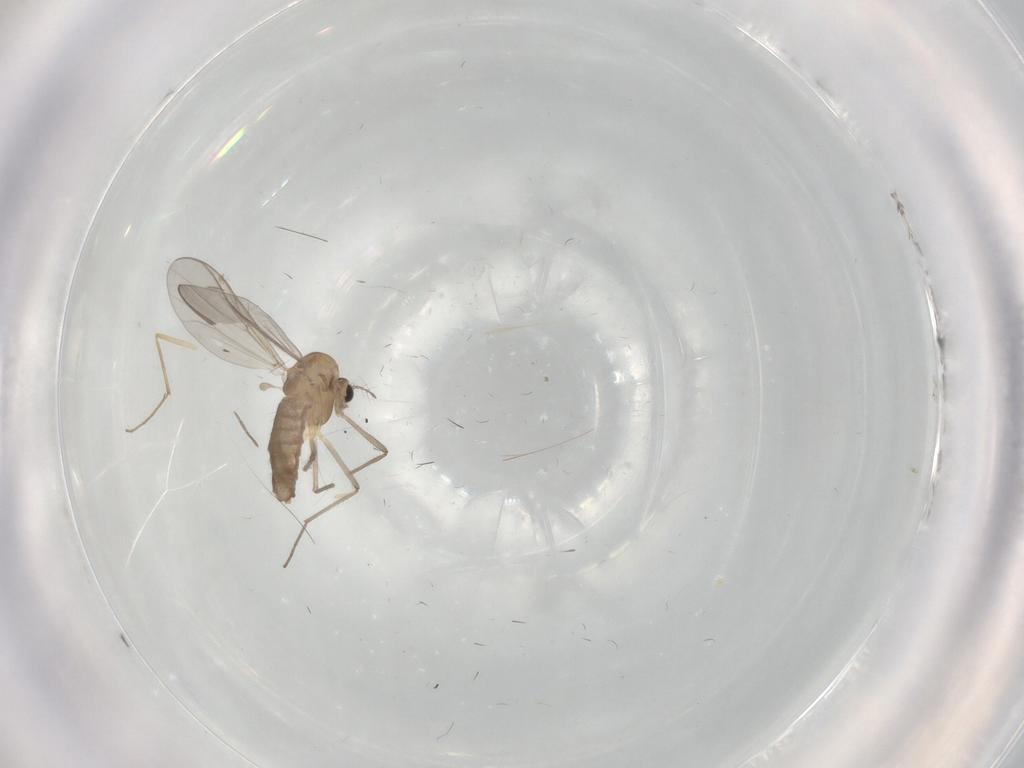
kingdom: Animalia
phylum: Arthropoda
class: Insecta
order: Diptera
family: Chironomidae
